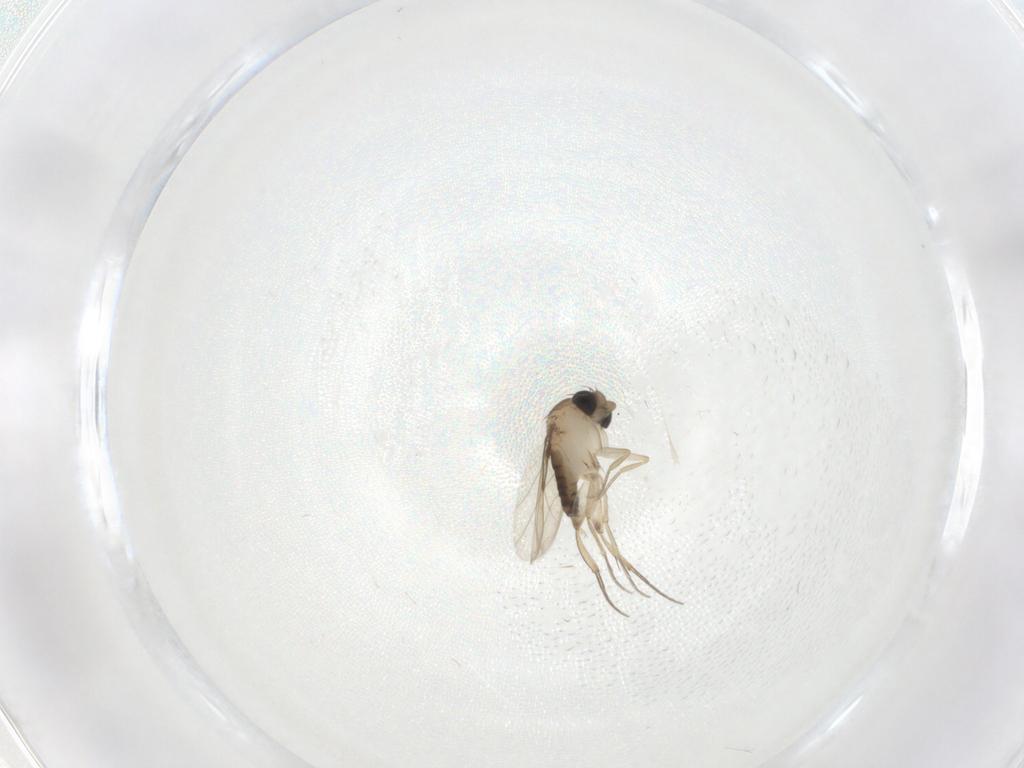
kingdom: Animalia
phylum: Arthropoda
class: Insecta
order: Diptera
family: Phoridae
